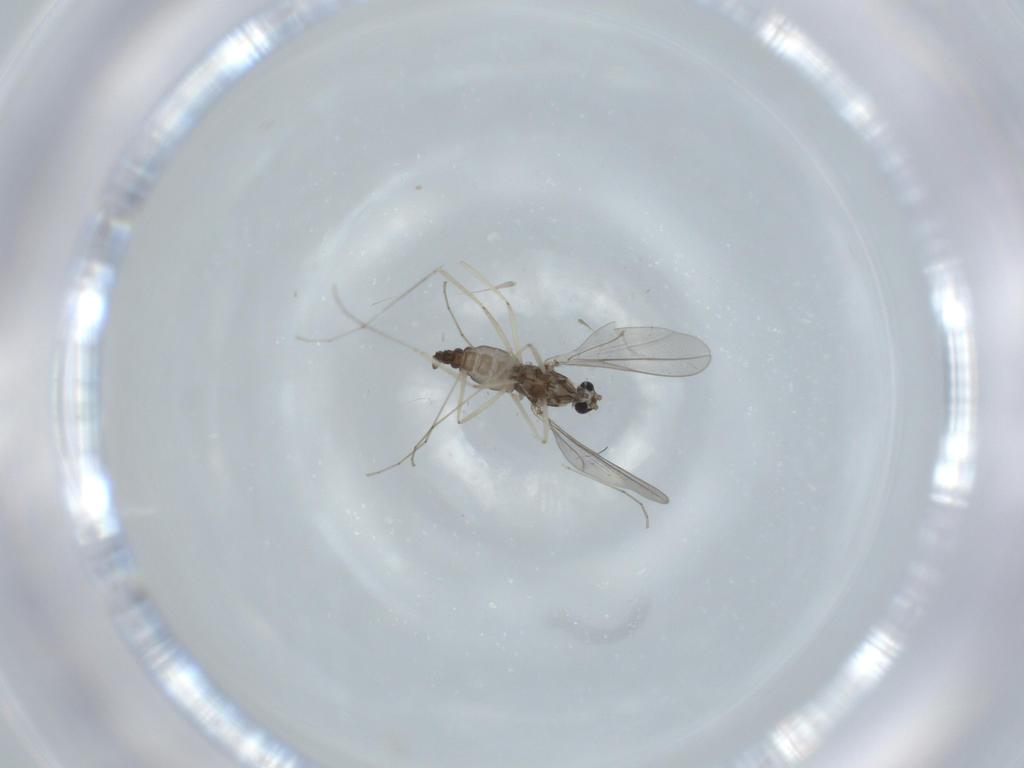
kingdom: Animalia
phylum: Arthropoda
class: Insecta
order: Diptera
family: Cecidomyiidae
